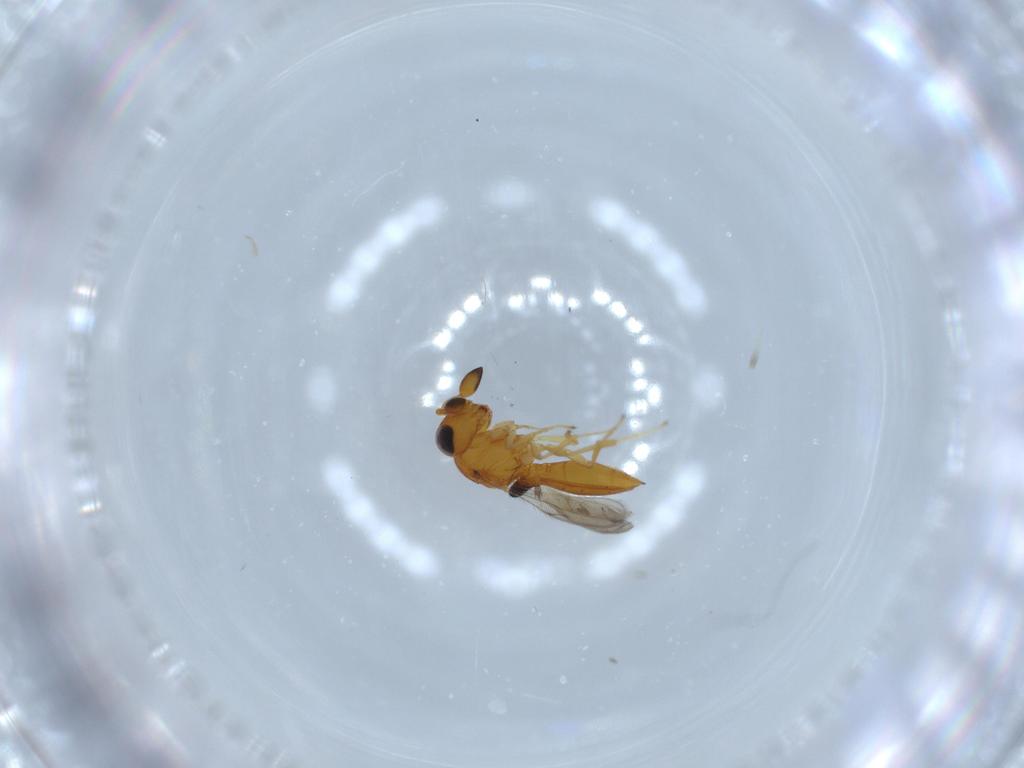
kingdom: Animalia
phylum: Arthropoda
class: Insecta
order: Hymenoptera
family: Scelionidae
